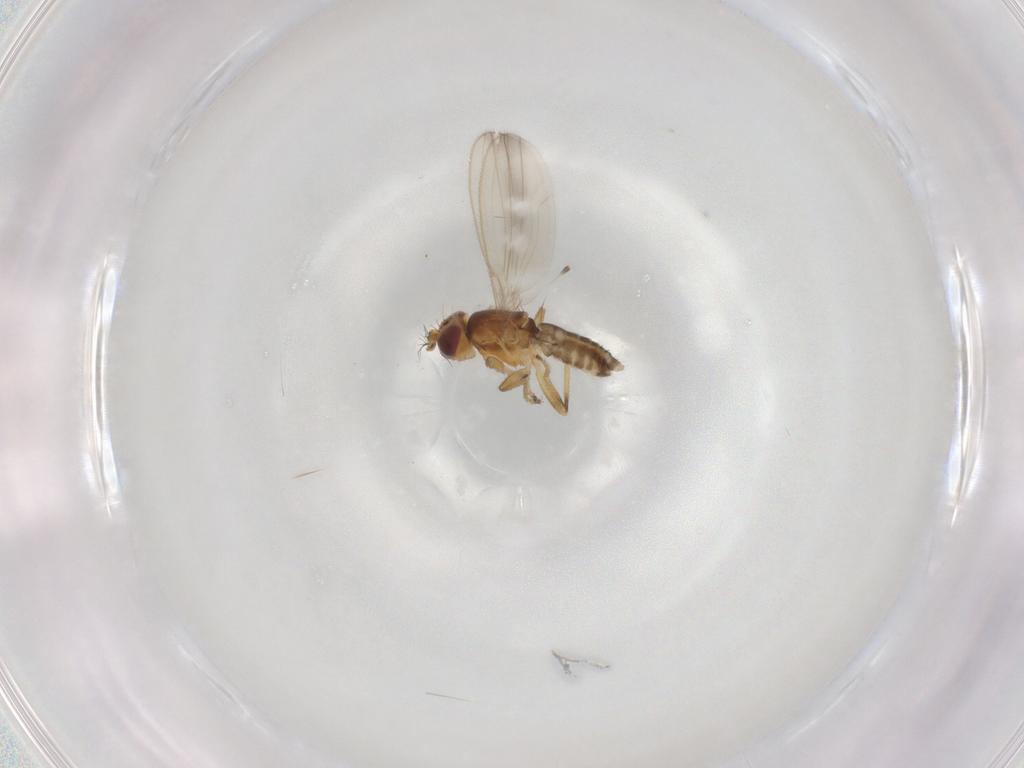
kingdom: Animalia
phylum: Arthropoda
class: Insecta
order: Diptera
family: Periscelididae
